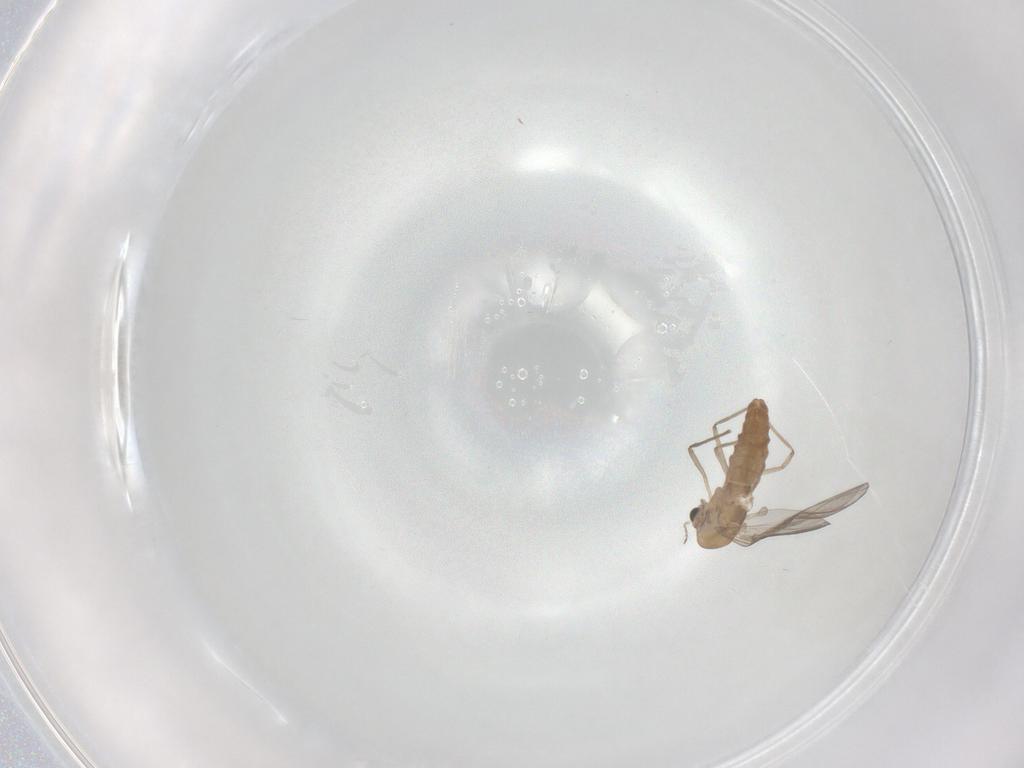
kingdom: Animalia
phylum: Arthropoda
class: Insecta
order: Diptera
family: Chironomidae
